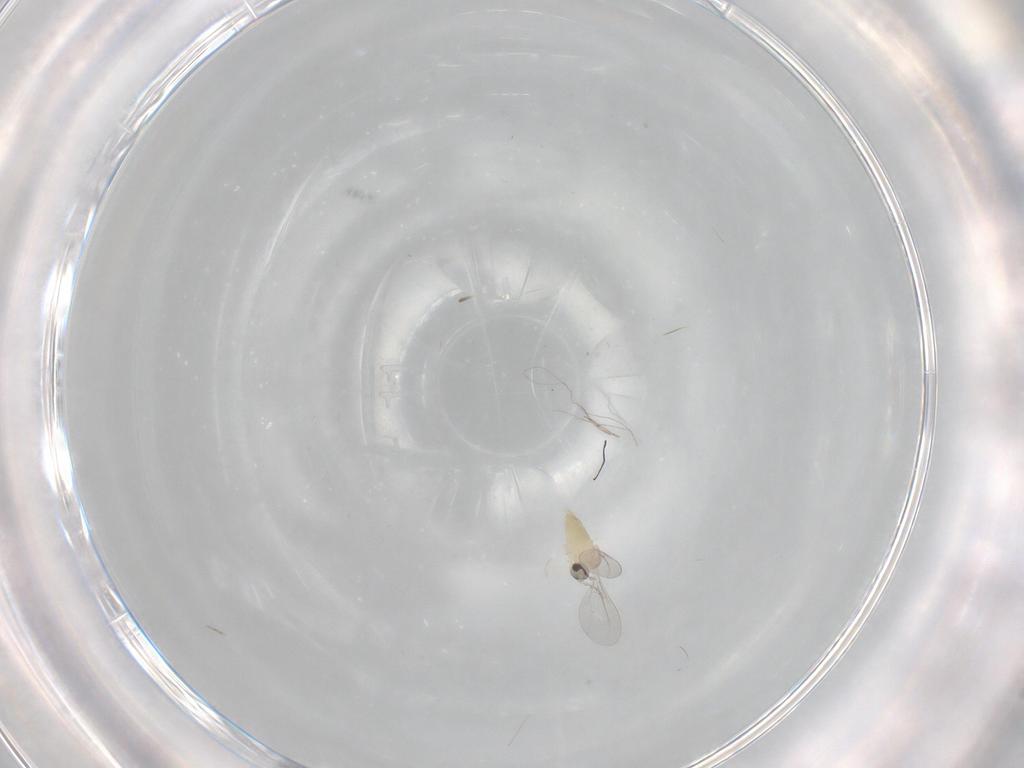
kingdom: Animalia
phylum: Arthropoda
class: Insecta
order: Diptera
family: Cecidomyiidae
